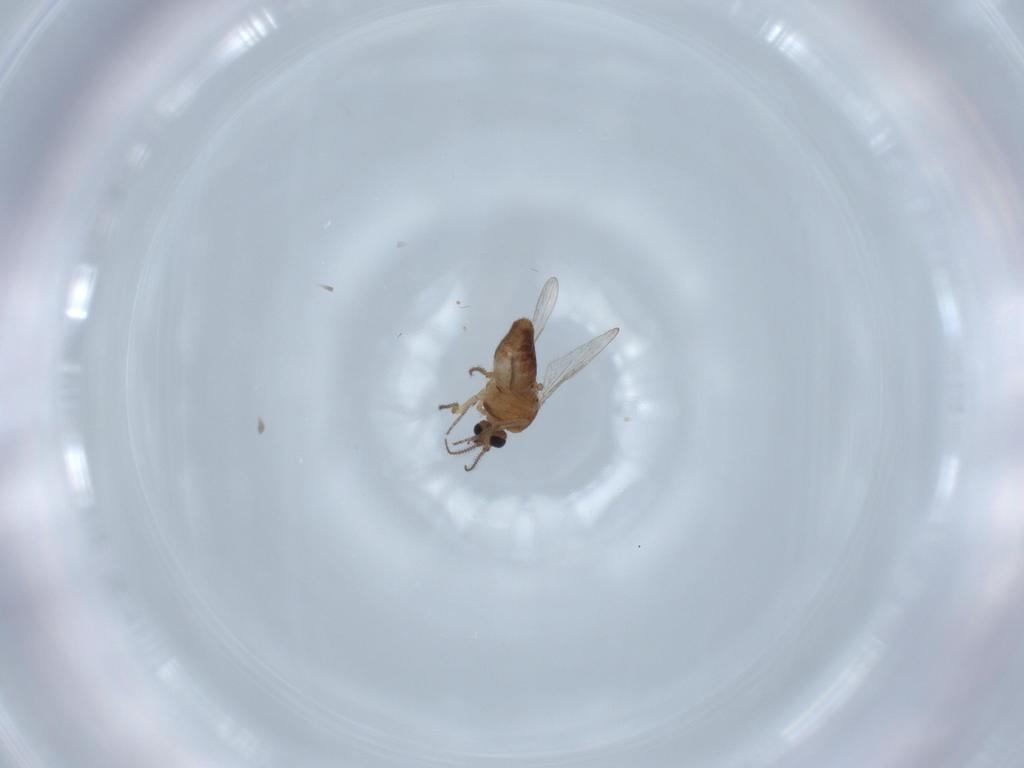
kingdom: Animalia
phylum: Arthropoda
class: Insecta
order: Diptera
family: Ceratopogonidae
